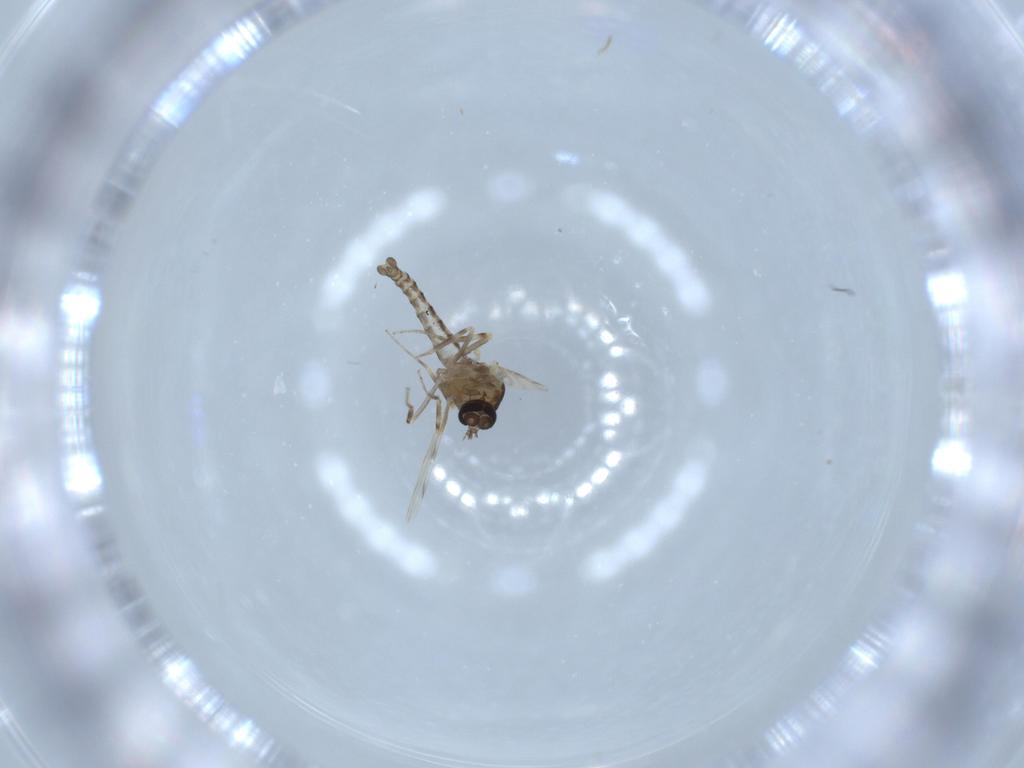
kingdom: Animalia
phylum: Arthropoda
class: Insecta
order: Diptera
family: Ceratopogonidae
